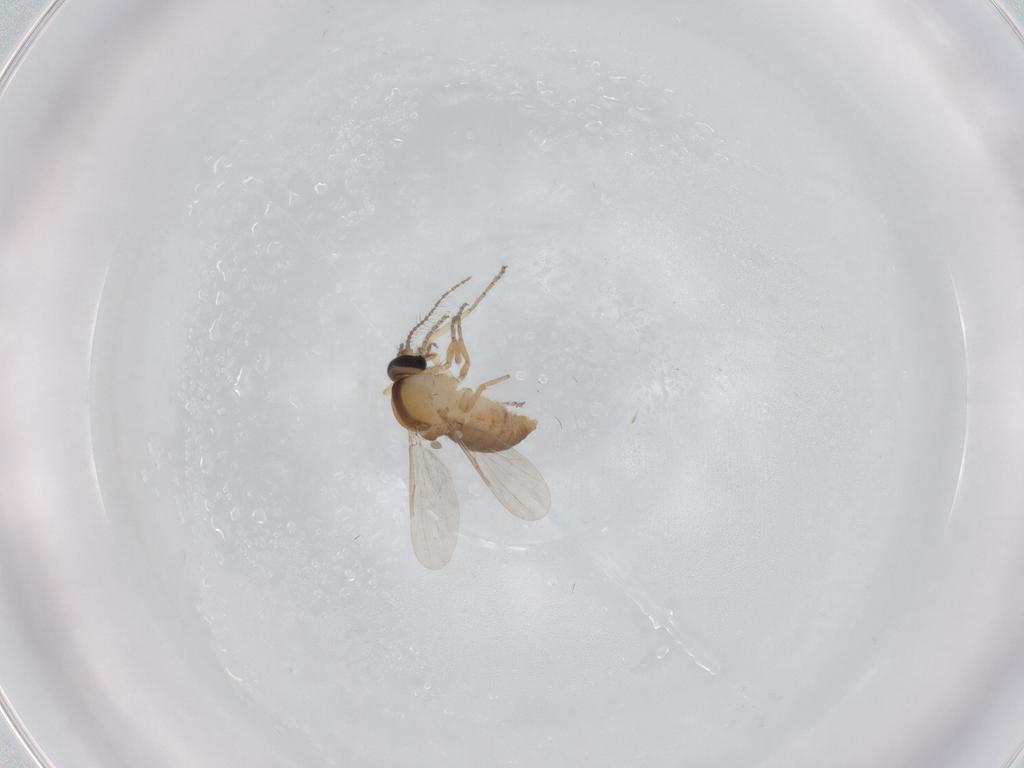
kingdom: Animalia
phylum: Arthropoda
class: Insecta
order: Diptera
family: Ceratopogonidae
